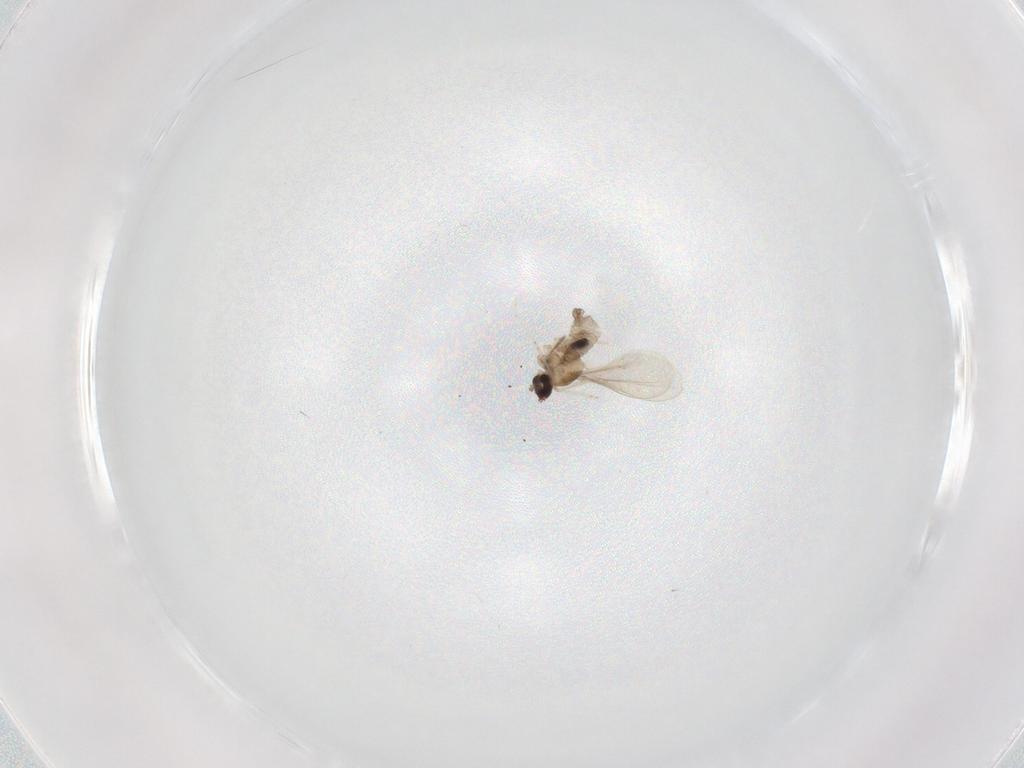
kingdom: Animalia
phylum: Arthropoda
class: Insecta
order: Diptera
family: Cecidomyiidae
